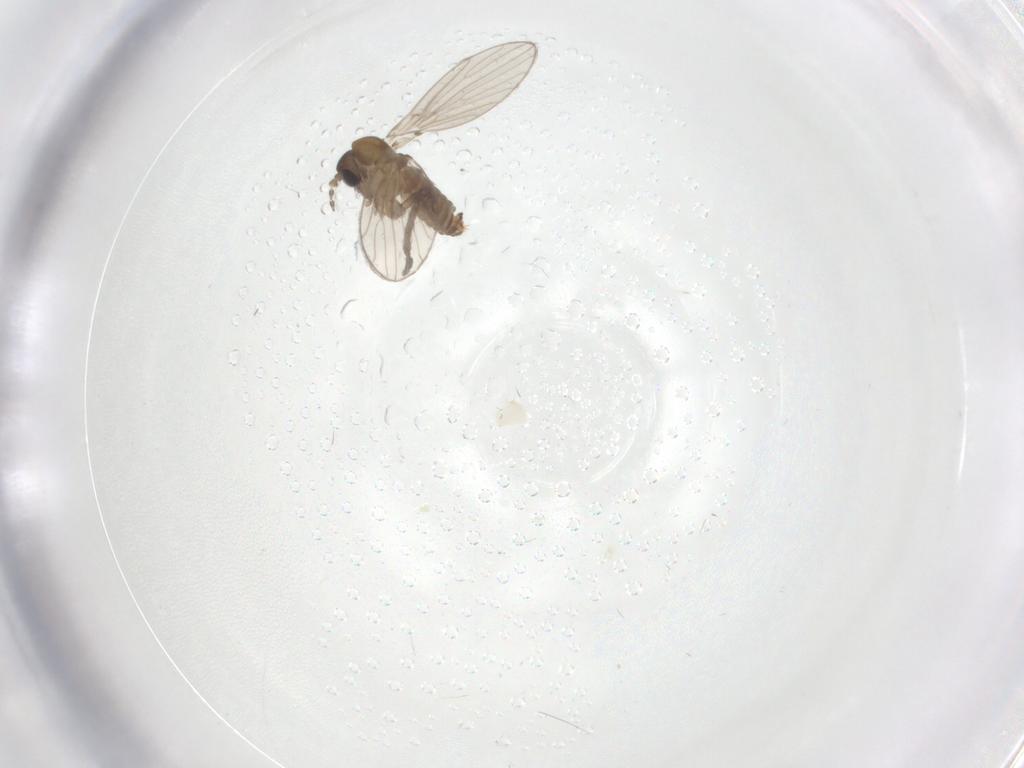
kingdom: Animalia
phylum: Arthropoda
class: Insecta
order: Diptera
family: Psychodidae
